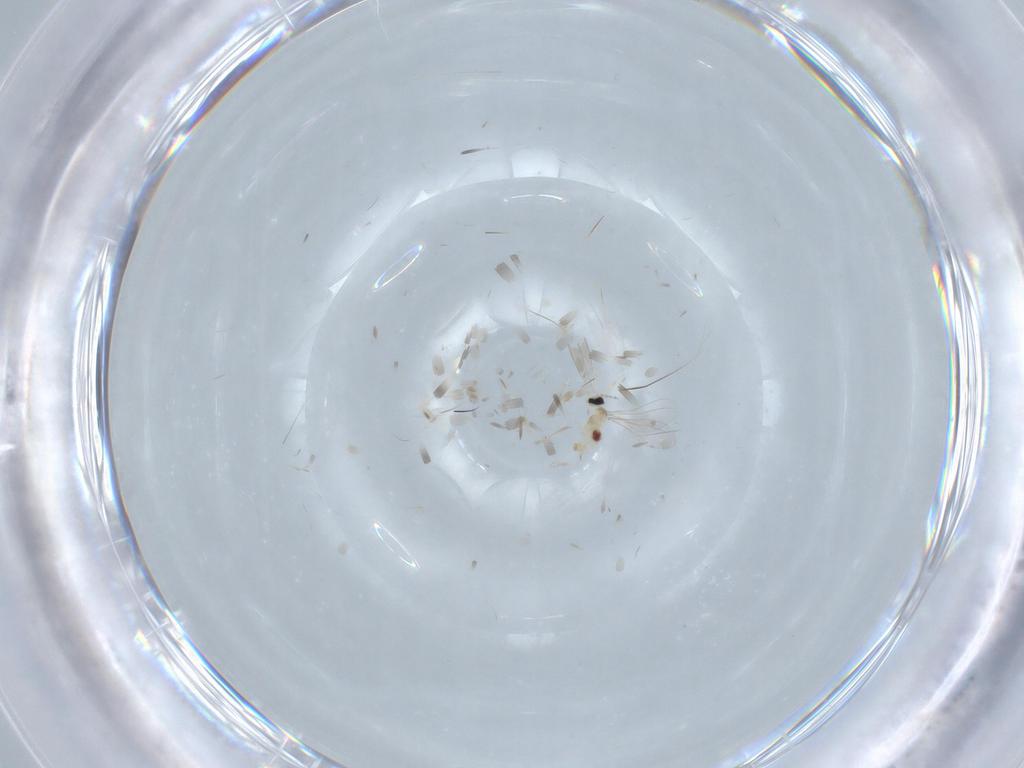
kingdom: Animalia
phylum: Arthropoda
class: Insecta
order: Diptera
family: Cecidomyiidae
